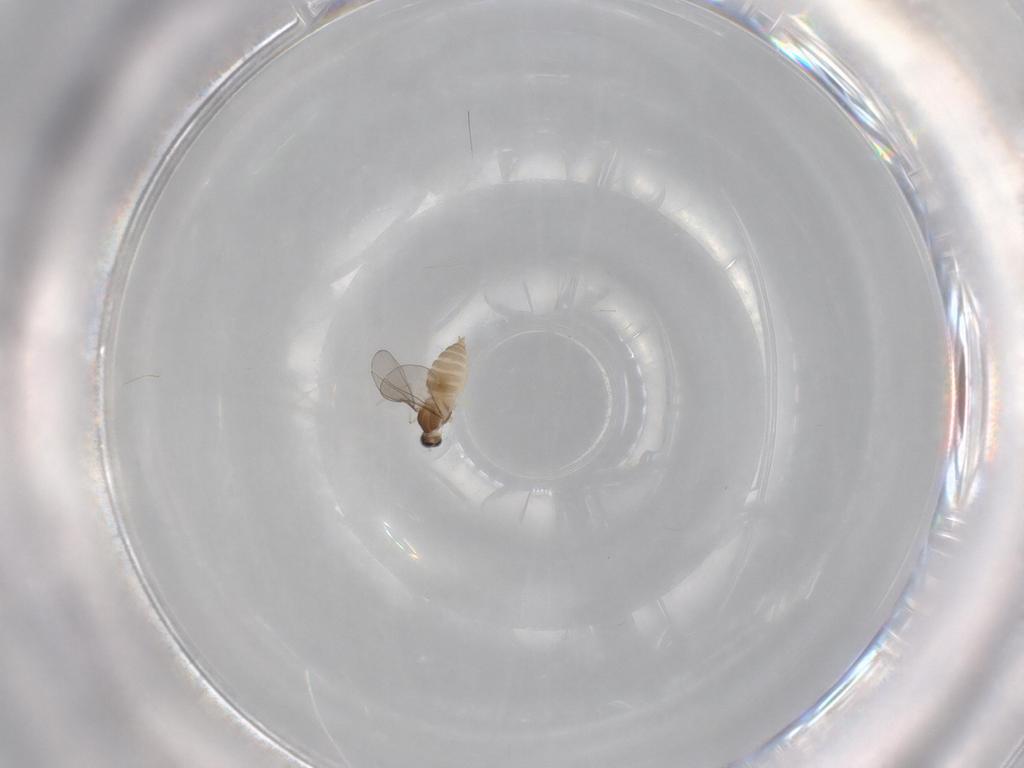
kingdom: Animalia
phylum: Arthropoda
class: Insecta
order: Diptera
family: Cecidomyiidae
